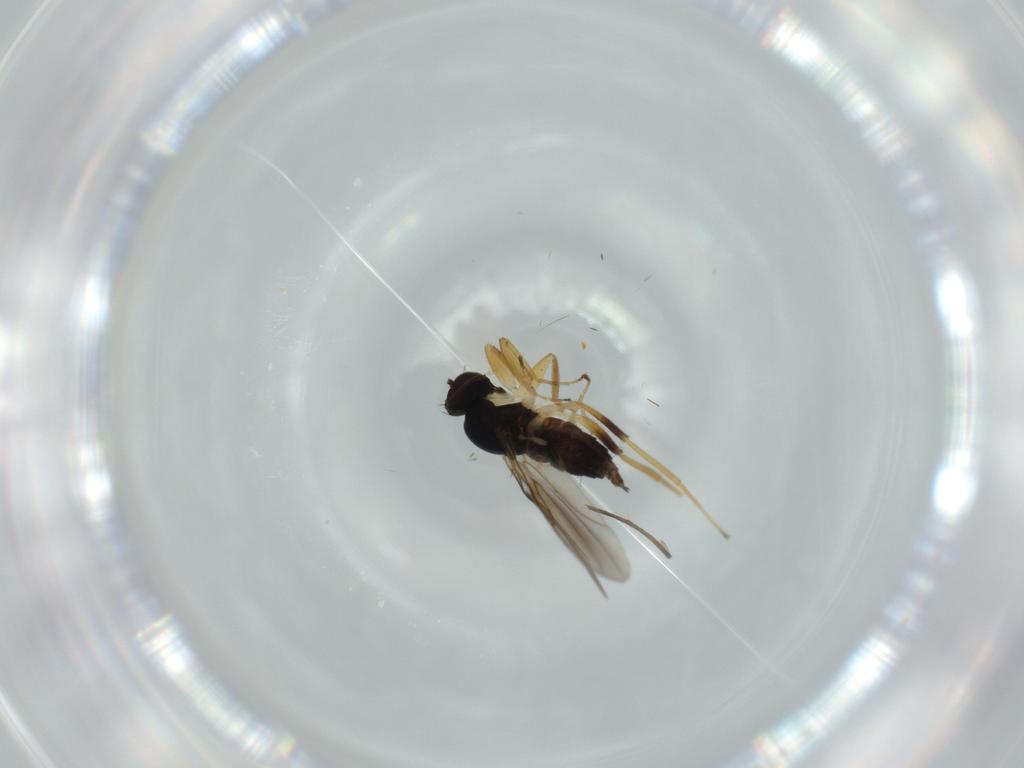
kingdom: Animalia
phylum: Arthropoda
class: Insecta
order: Diptera
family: Hybotidae
